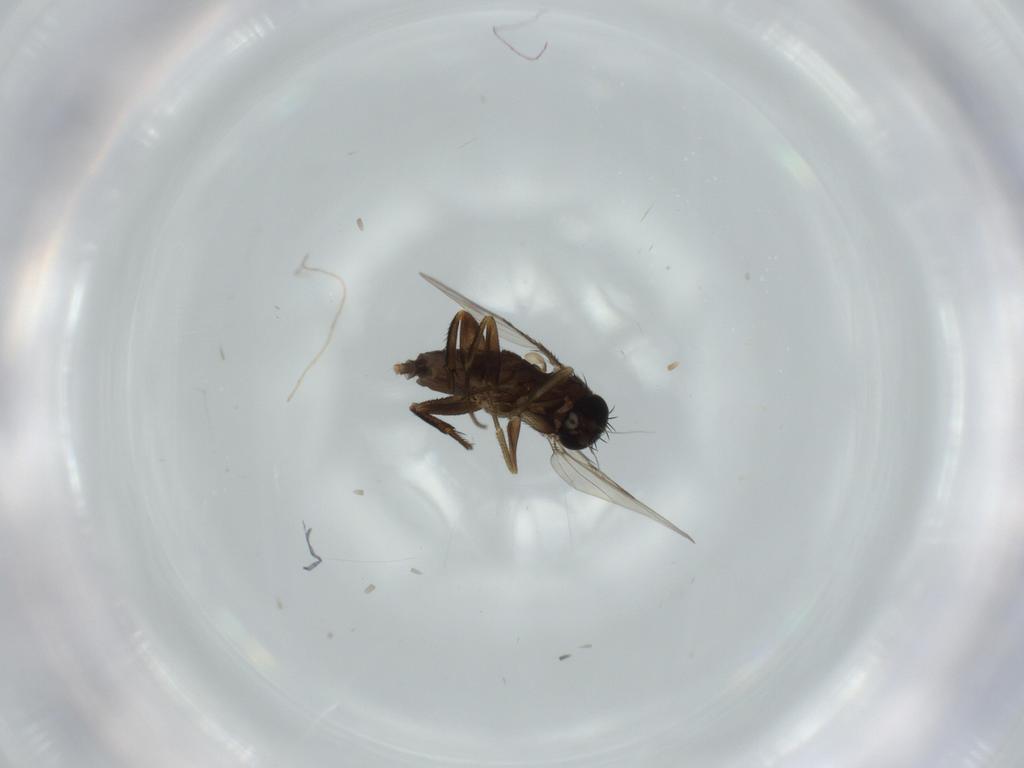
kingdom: Animalia
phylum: Arthropoda
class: Insecta
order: Diptera
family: Phoridae
